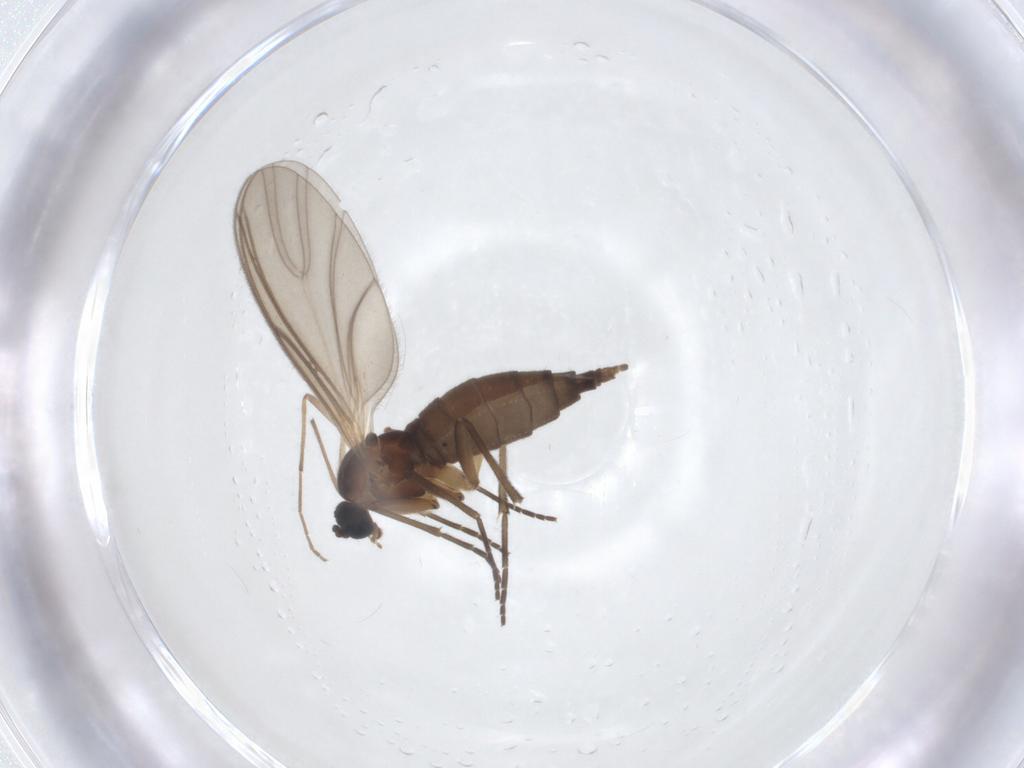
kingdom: Animalia
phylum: Arthropoda
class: Insecta
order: Diptera
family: Sciaridae
